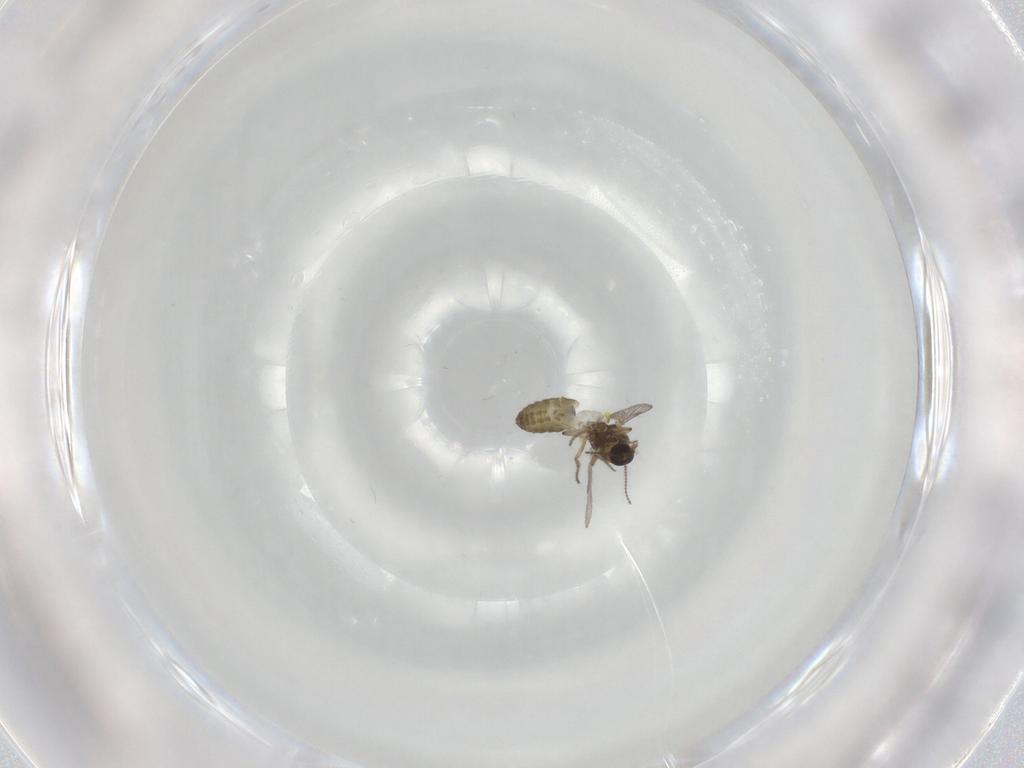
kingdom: Animalia
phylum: Arthropoda
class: Insecta
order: Diptera
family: Ceratopogonidae
